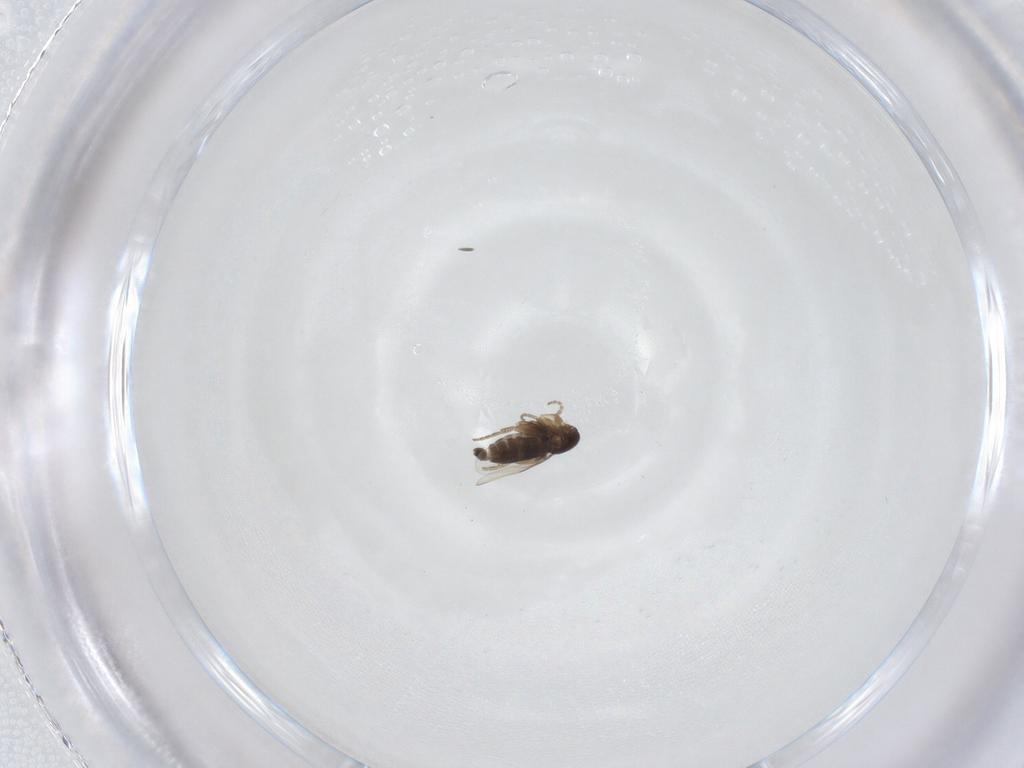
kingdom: Animalia
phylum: Arthropoda
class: Insecta
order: Diptera
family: Phoridae
